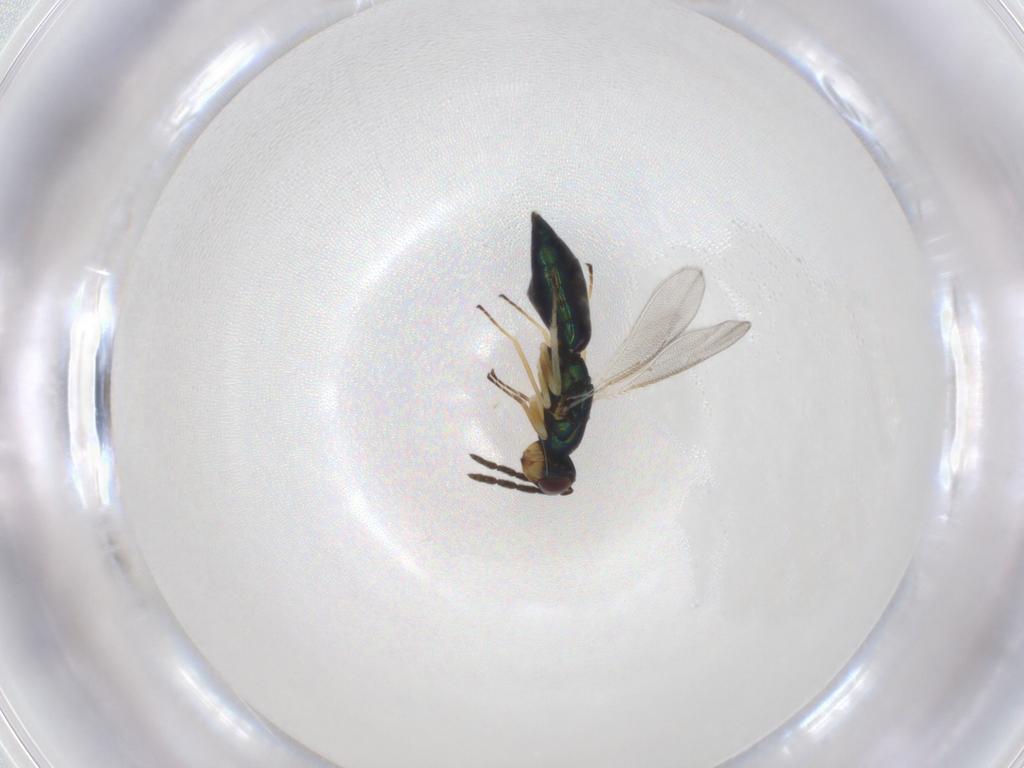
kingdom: Animalia
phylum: Arthropoda
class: Insecta
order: Hymenoptera
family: Eulophidae
